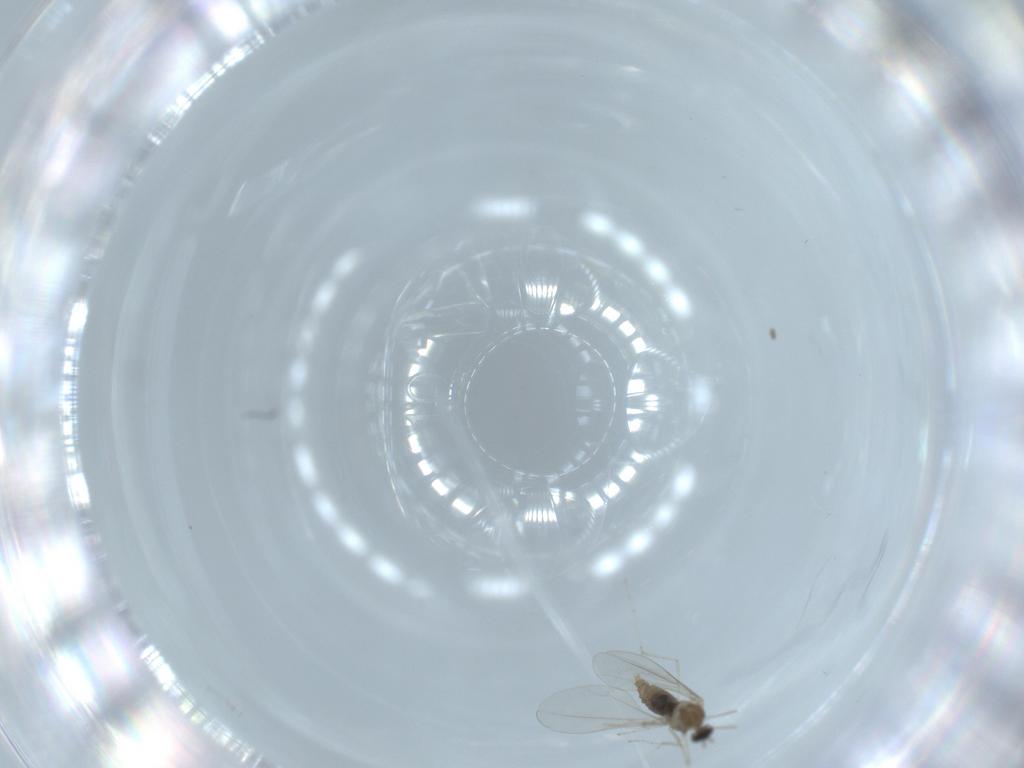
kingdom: Animalia
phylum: Arthropoda
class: Insecta
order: Diptera
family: Cecidomyiidae
